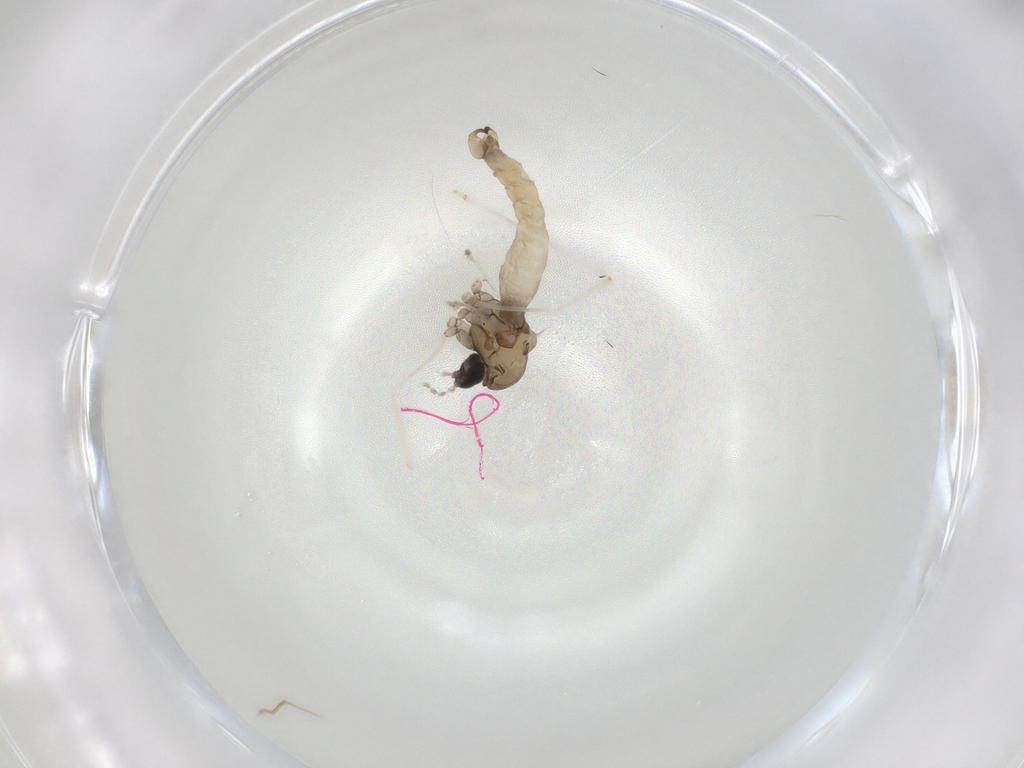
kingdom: Animalia
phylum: Arthropoda
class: Insecta
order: Diptera
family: Cecidomyiidae
